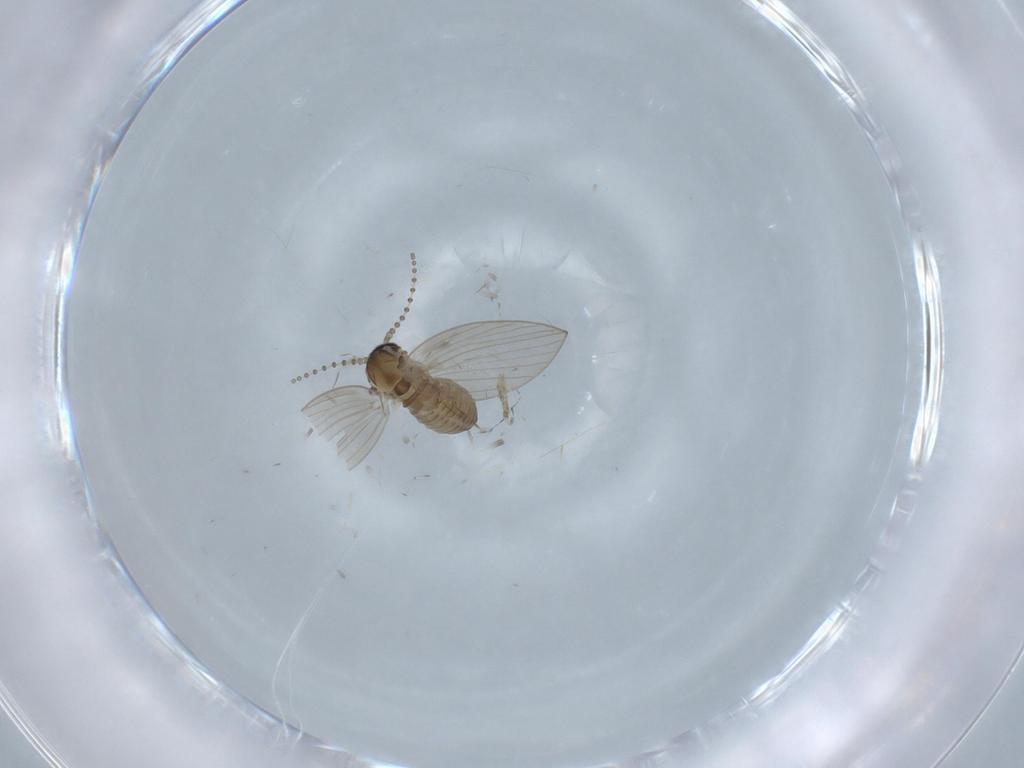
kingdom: Animalia
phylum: Arthropoda
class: Insecta
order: Diptera
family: Psychodidae
